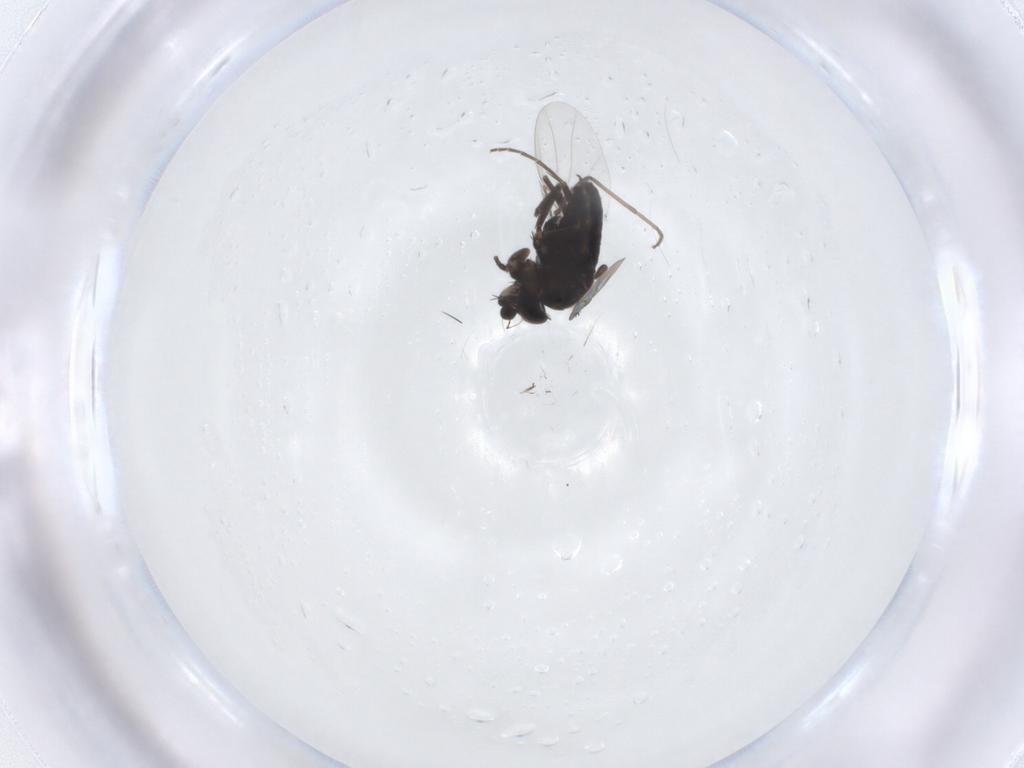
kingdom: Animalia
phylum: Arthropoda
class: Insecta
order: Diptera
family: Phoridae
